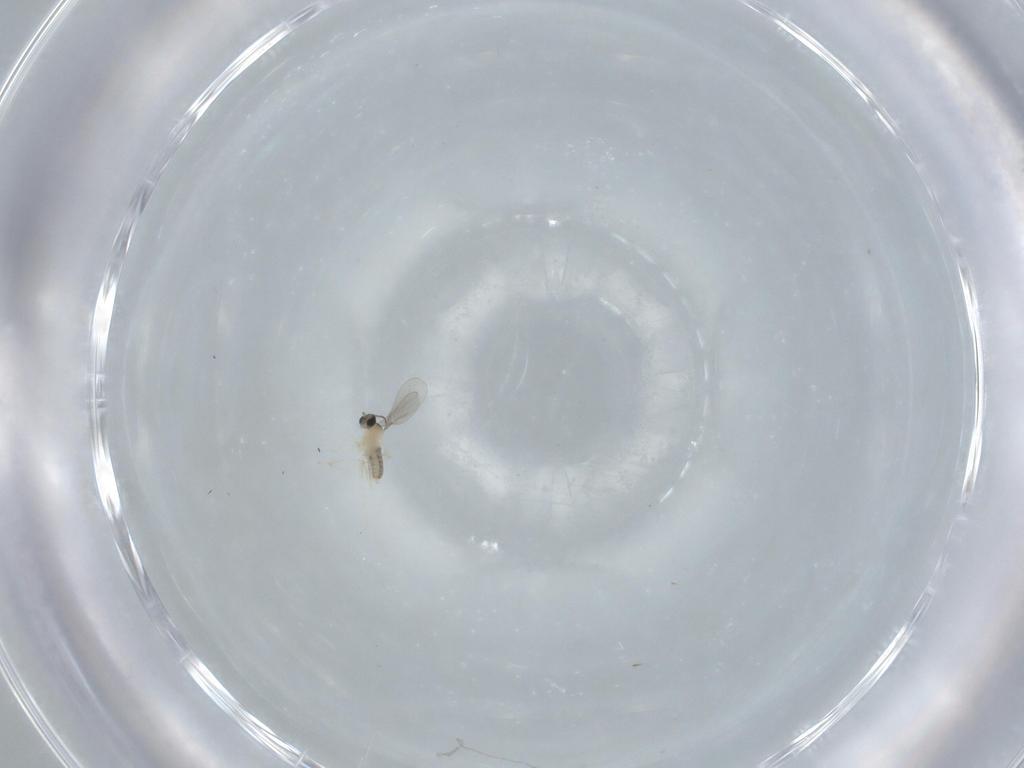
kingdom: Animalia
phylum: Arthropoda
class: Insecta
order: Diptera
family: Cecidomyiidae
